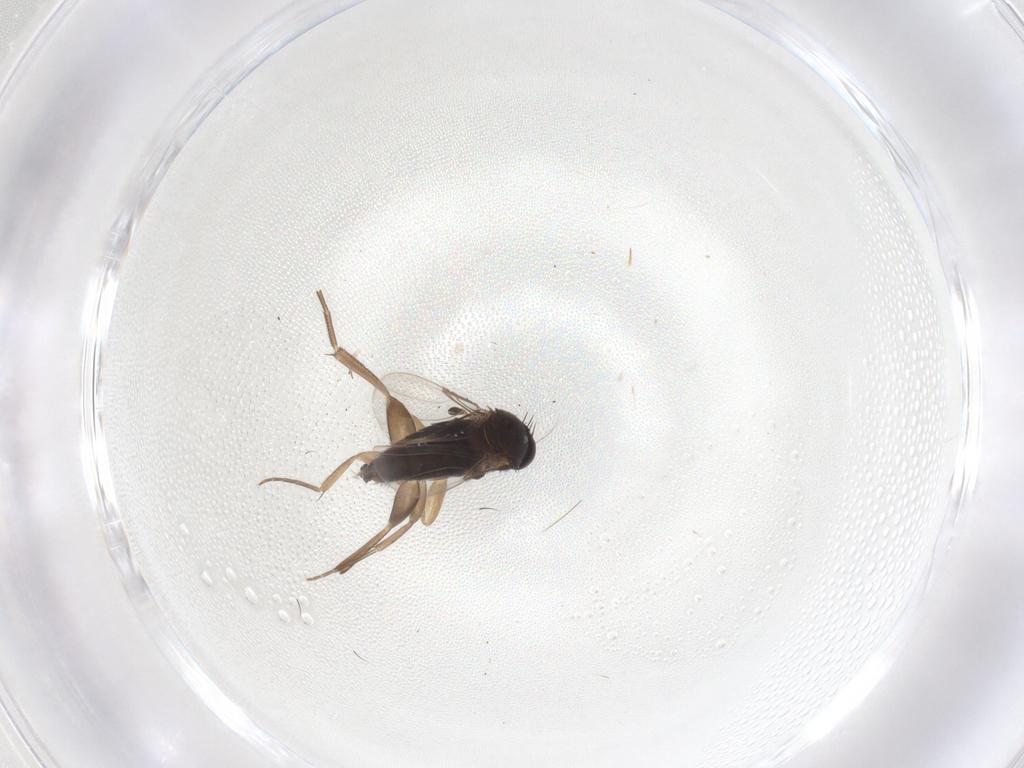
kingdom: Animalia
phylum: Arthropoda
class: Insecta
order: Diptera
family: Phoridae
